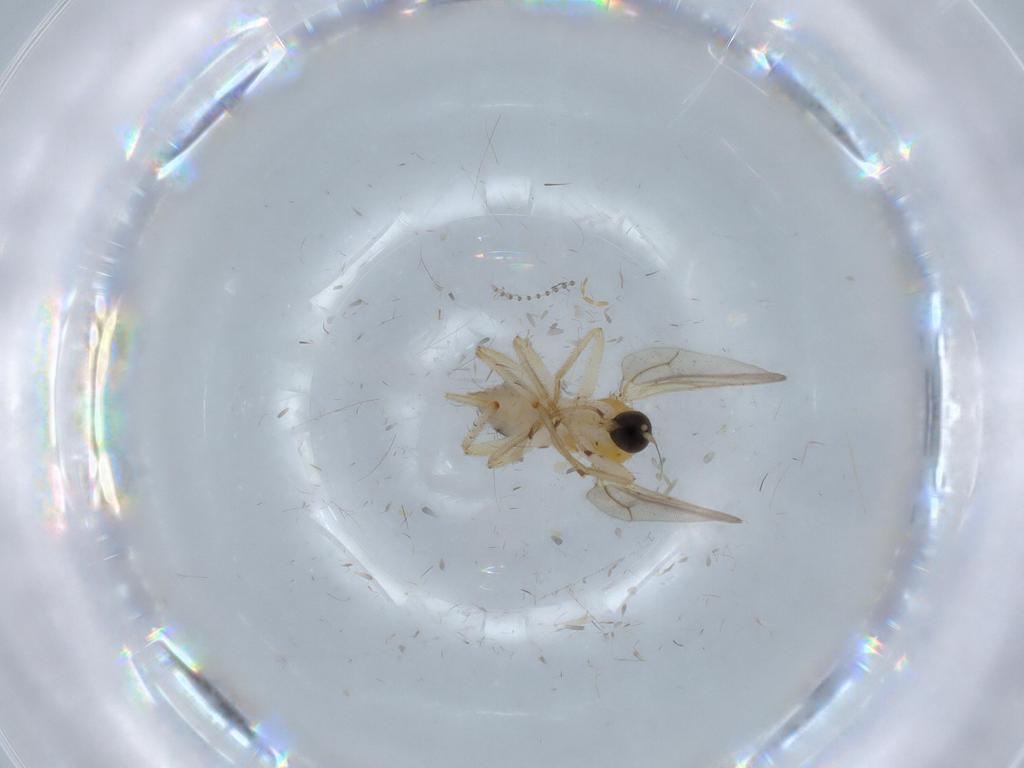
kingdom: Animalia
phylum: Arthropoda
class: Insecta
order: Diptera
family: Hybotidae
